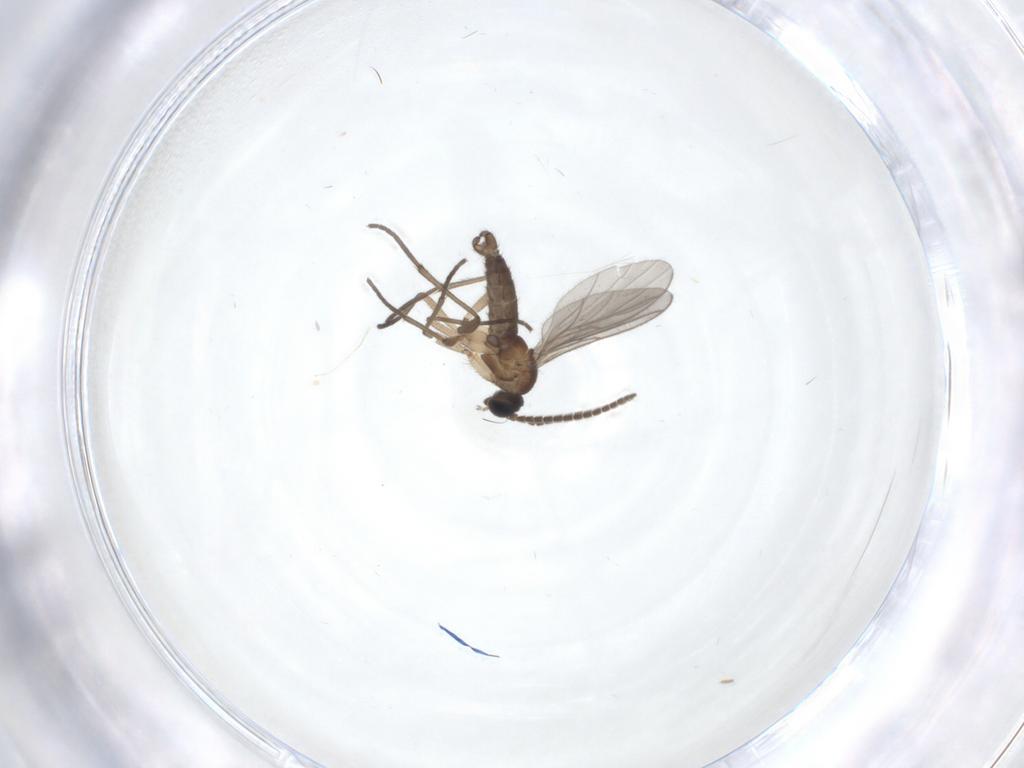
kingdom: Animalia
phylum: Arthropoda
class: Insecta
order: Diptera
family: Sciaridae
